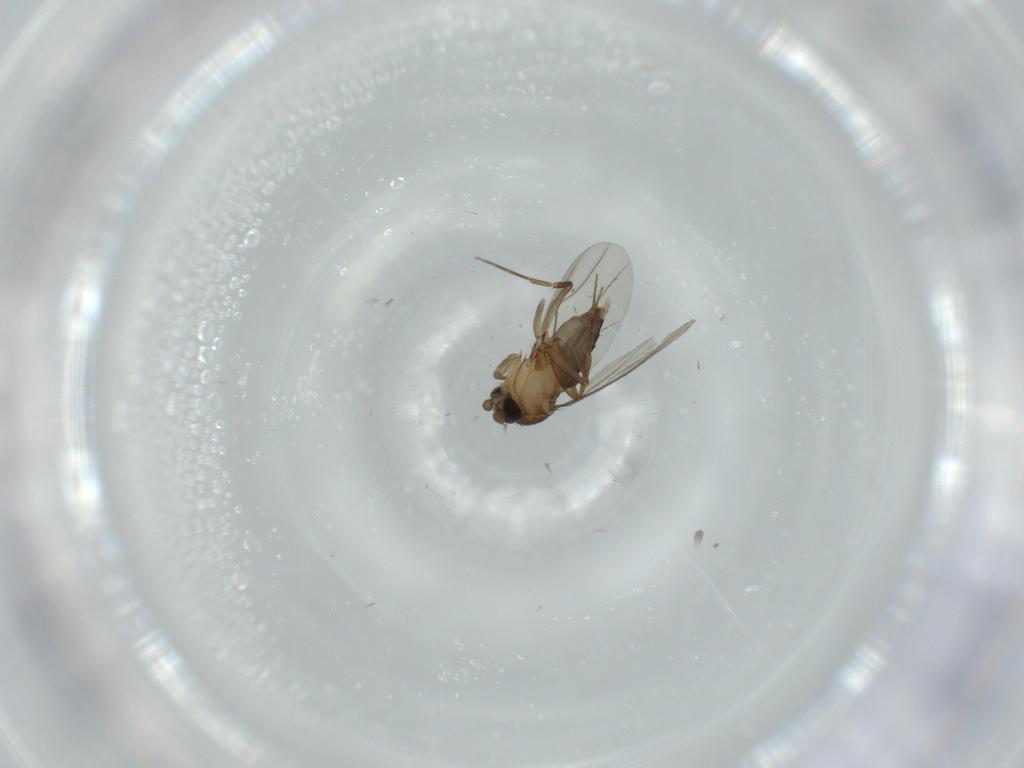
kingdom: Animalia
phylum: Arthropoda
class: Insecta
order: Diptera
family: Phoridae
